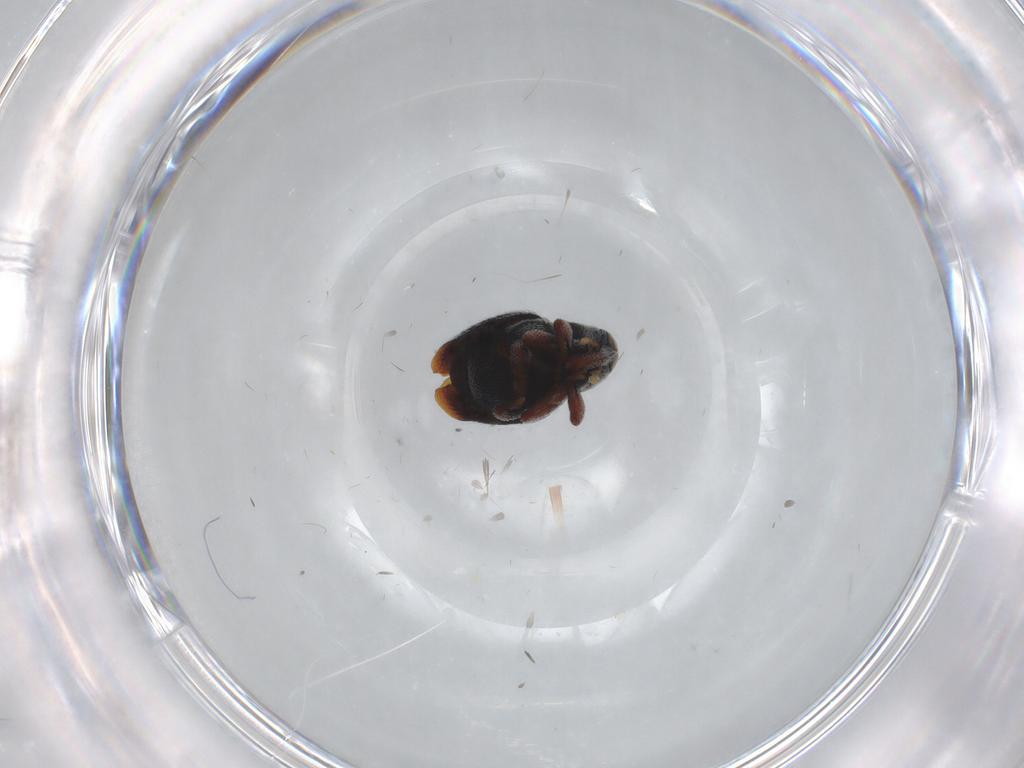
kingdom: Animalia
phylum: Arthropoda
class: Insecta
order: Coleoptera
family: Curculionidae
